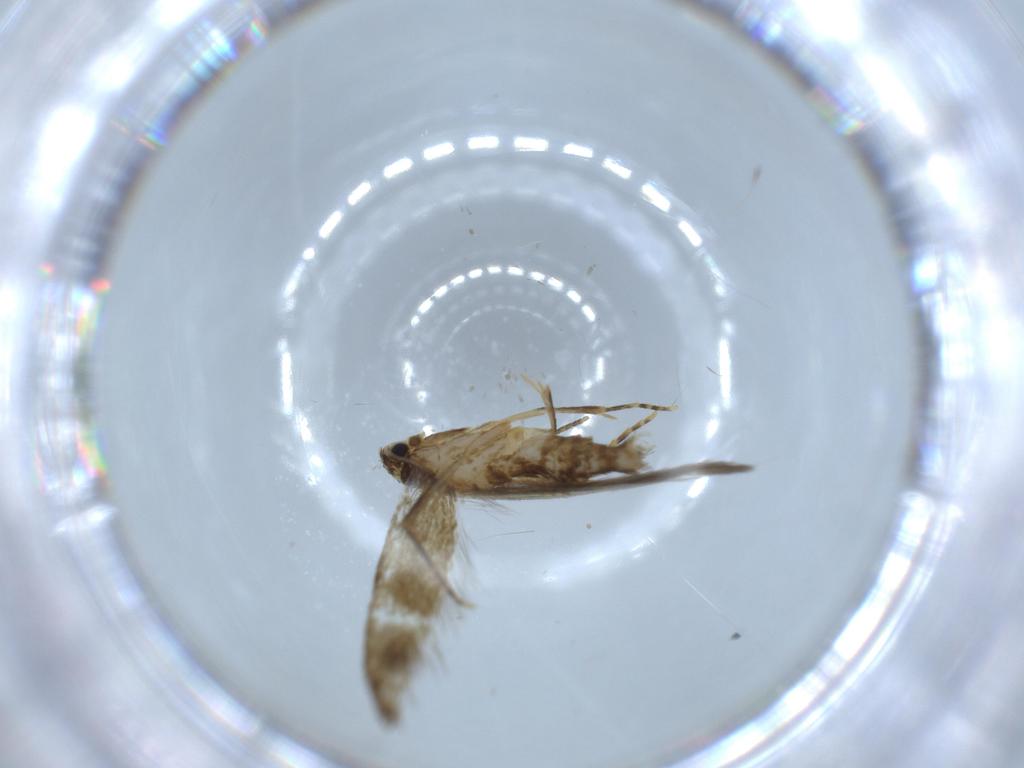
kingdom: Animalia
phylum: Arthropoda
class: Insecta
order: Lepidoptera
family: Tineidae
